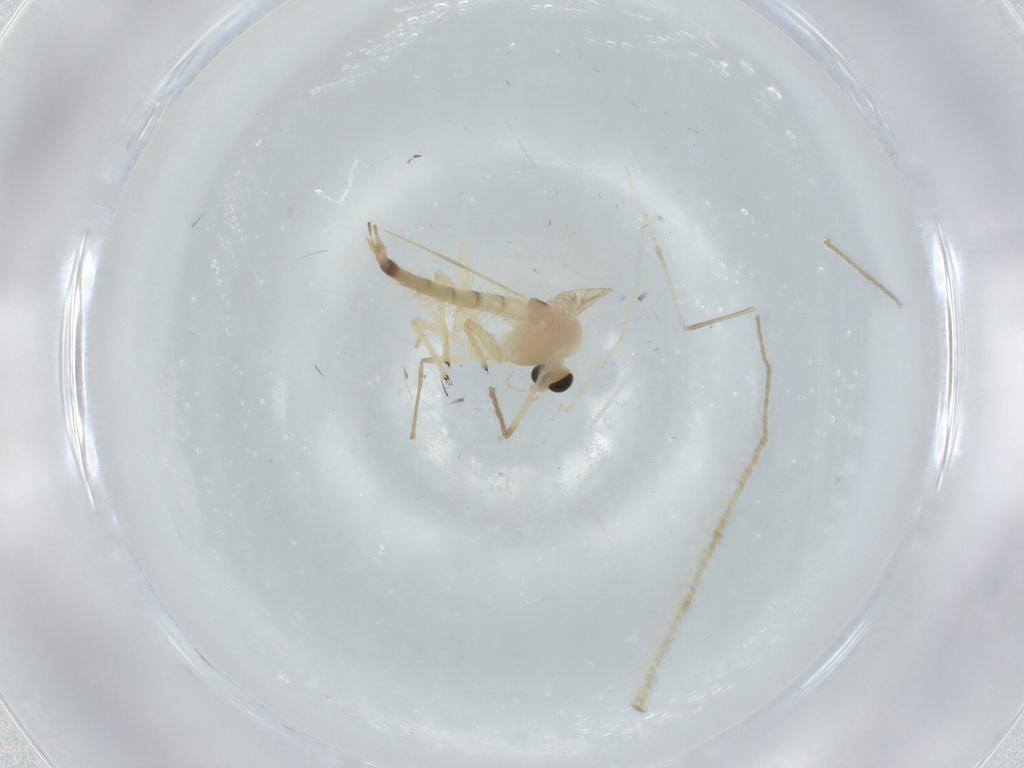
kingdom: Animalia
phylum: Arthropoda
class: Insecta
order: Diptera
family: Chironomidae
